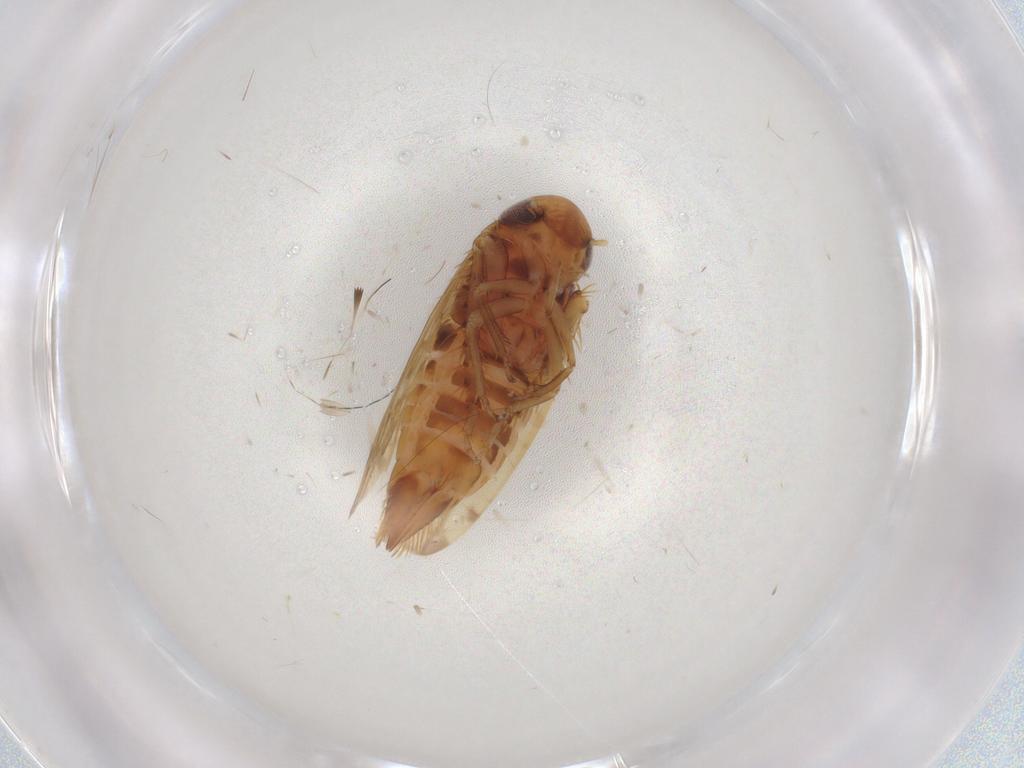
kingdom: Animalia
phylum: Arthropoda
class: Insecta
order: Hemiptera
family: Cicadellidae
